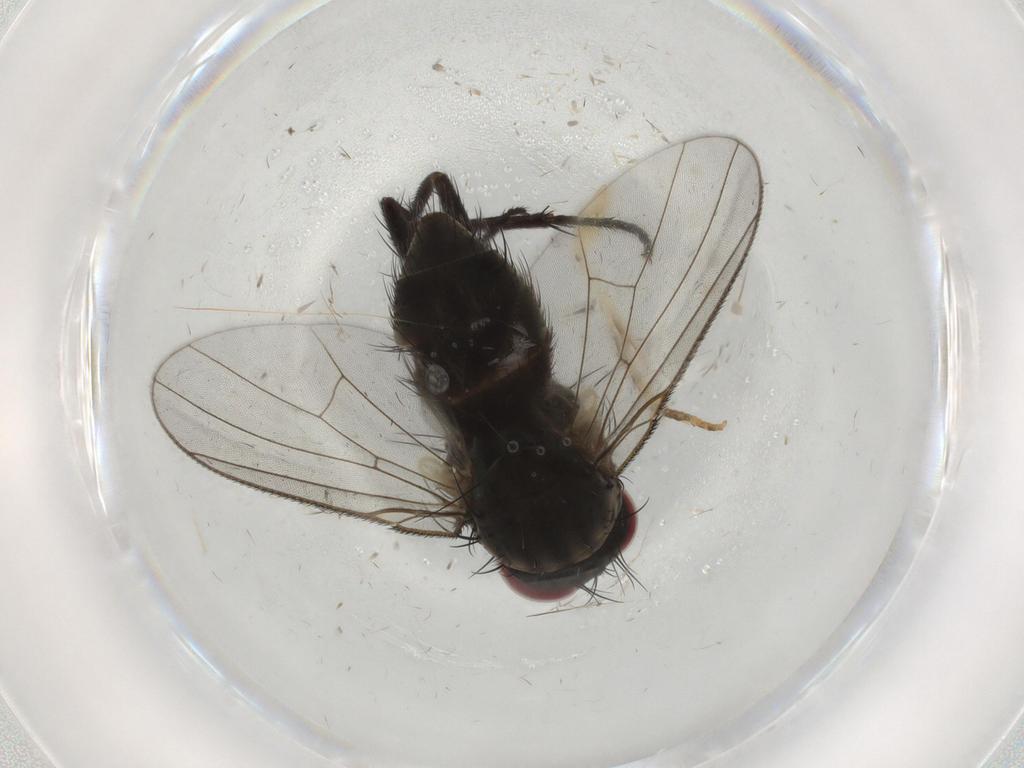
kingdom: Animalia
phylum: Arthropoda
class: Insecta
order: Diptera
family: Muscidae
